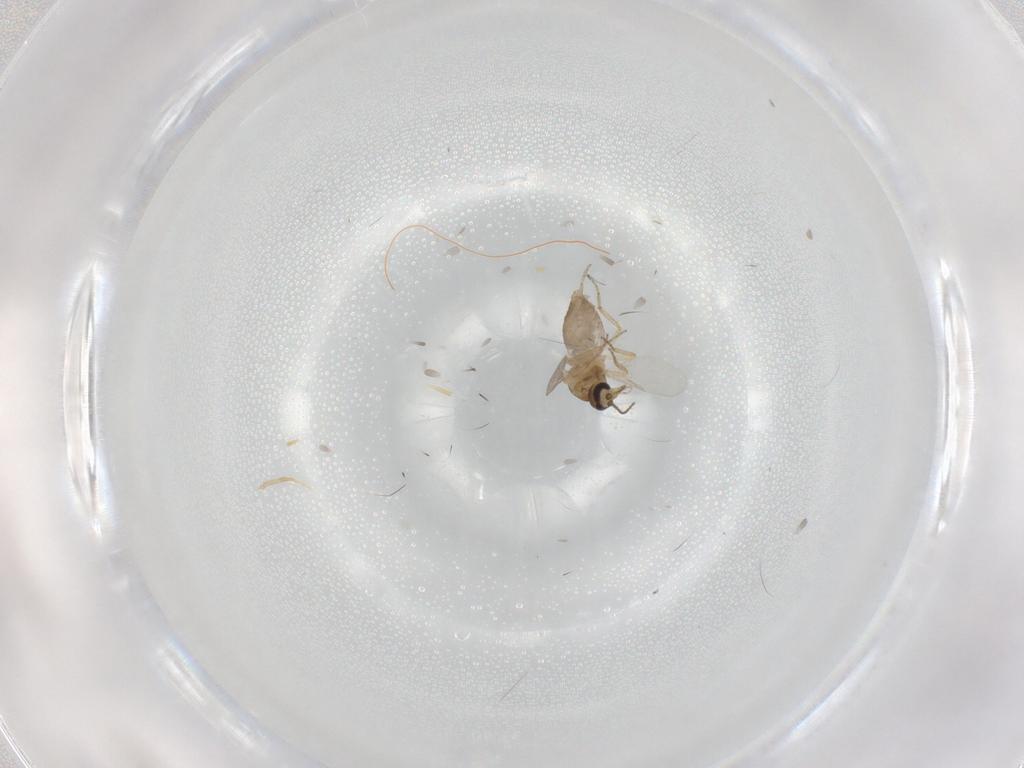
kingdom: Animalia
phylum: Arthropoda
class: Insecta
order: Diptera
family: Ceratopogonidae
